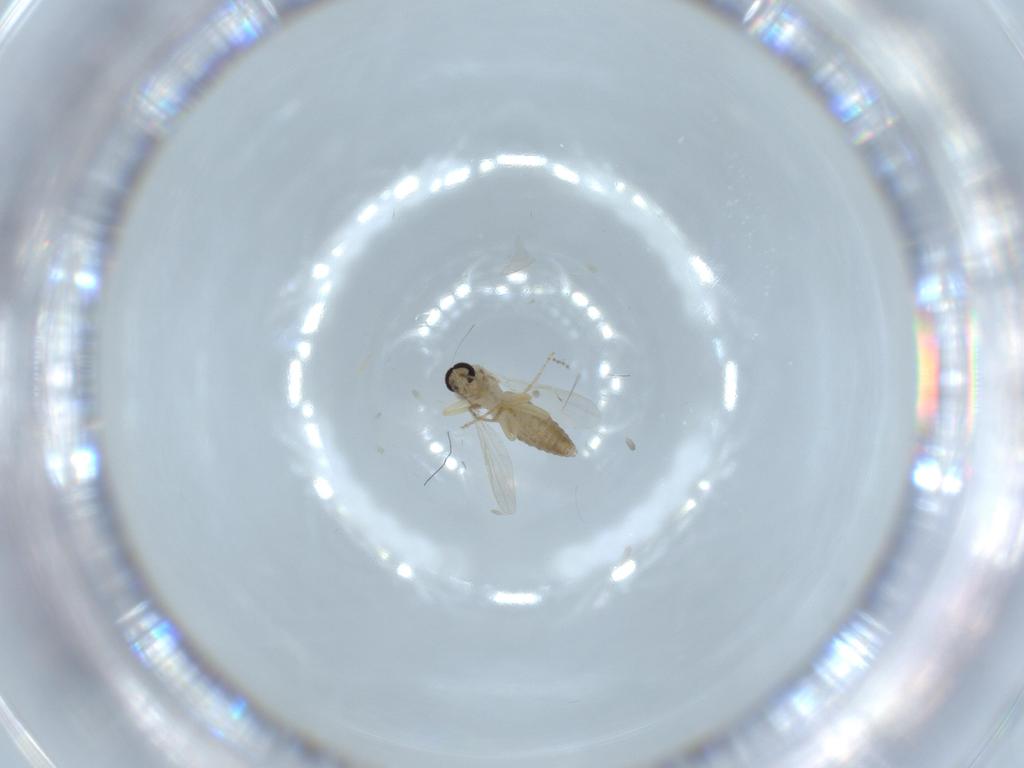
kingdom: Animalia
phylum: Arthropoda
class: Insecta
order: Diptera
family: Ceratopogonidae
